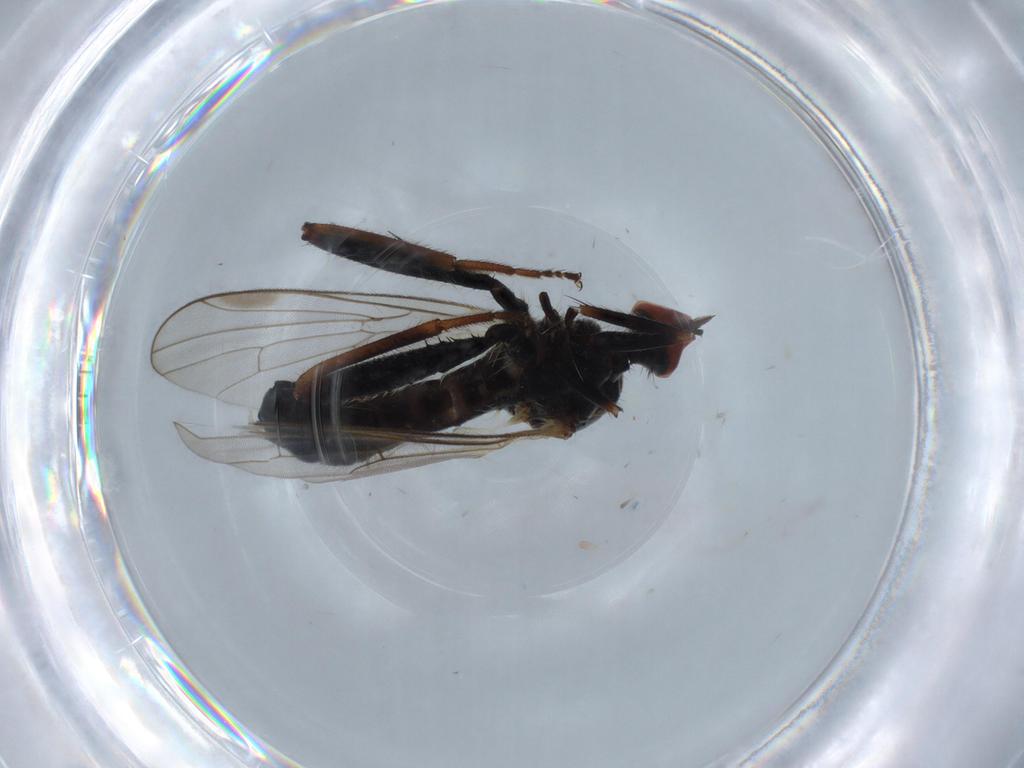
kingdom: Animalia
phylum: Arthropoda
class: Insecta
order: Diptera
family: Hybotidae
